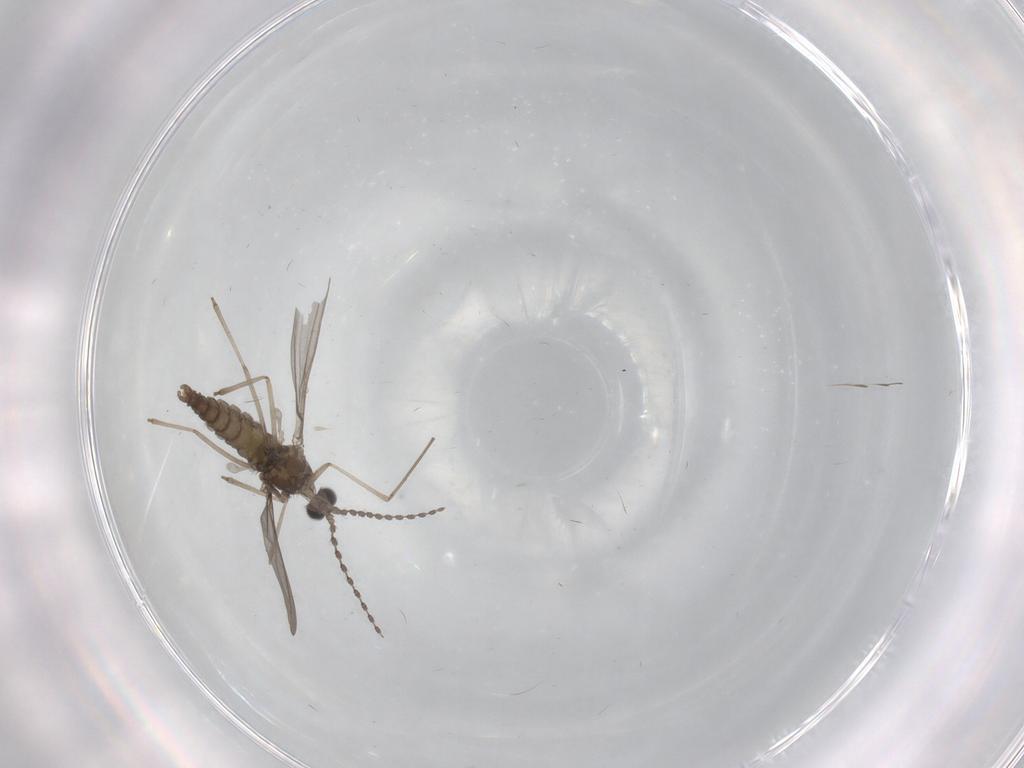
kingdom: Animalia
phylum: Arthropoda
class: Insecta
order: Diptera
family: Cecidomyiidae
